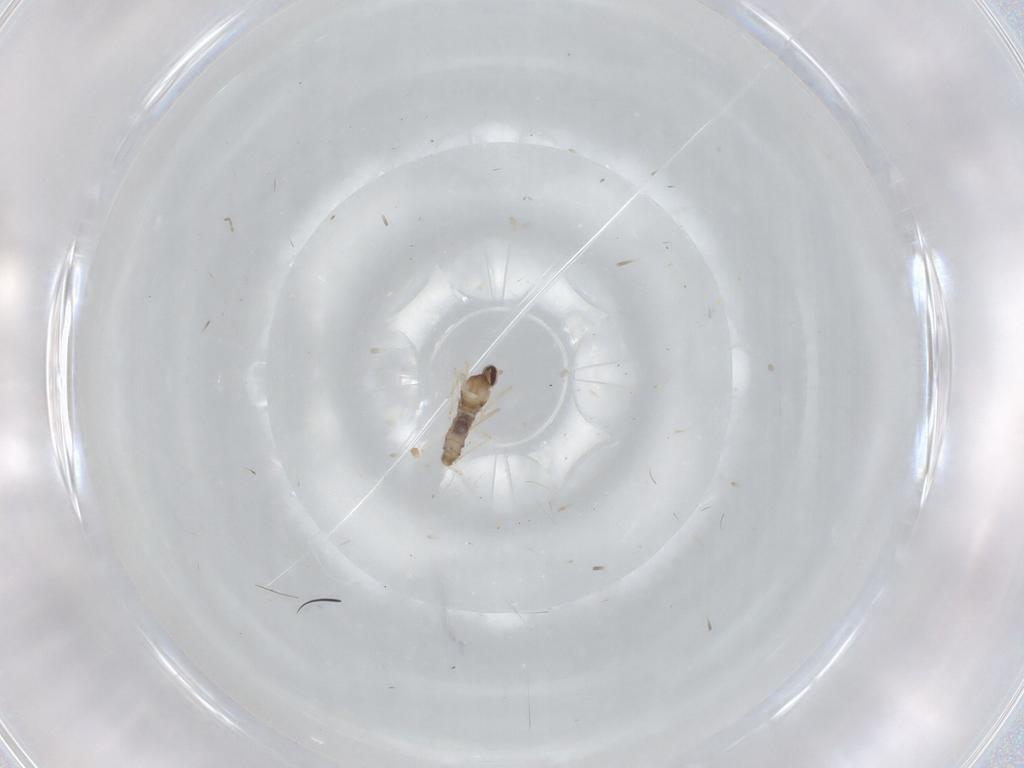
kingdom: Animalia
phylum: Arthropoda
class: Insecta
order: Diptera
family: Cecidomyiidae
